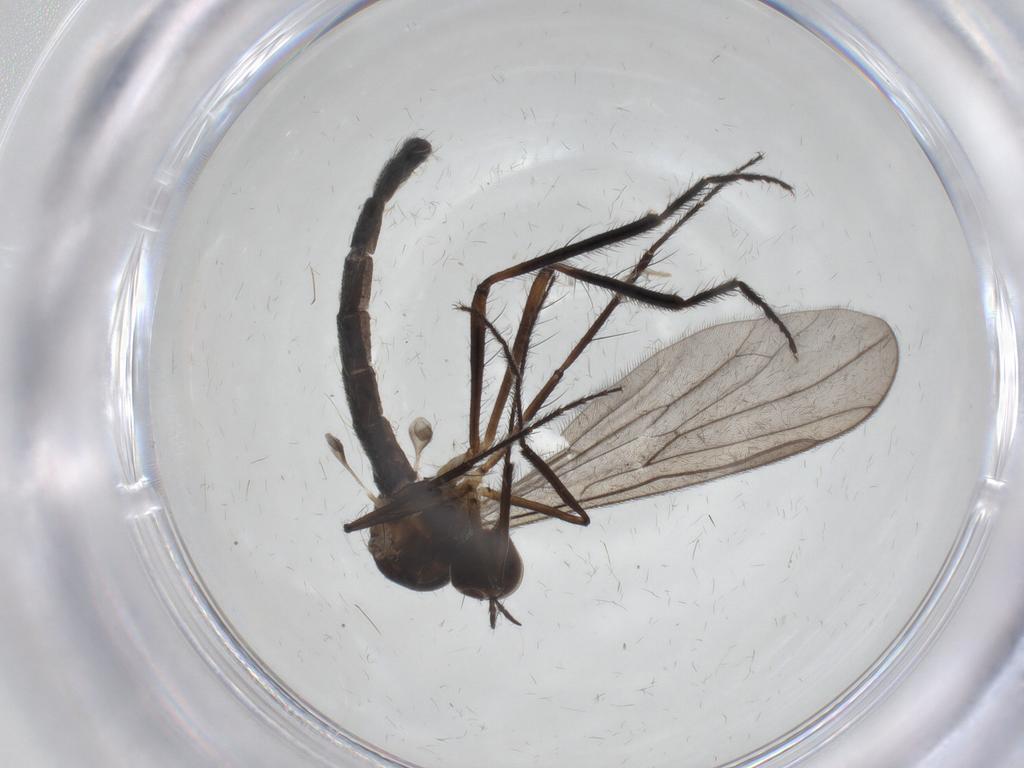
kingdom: Animalia
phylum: Arthropoda
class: Insecta
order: Diptera
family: Hybotidae
